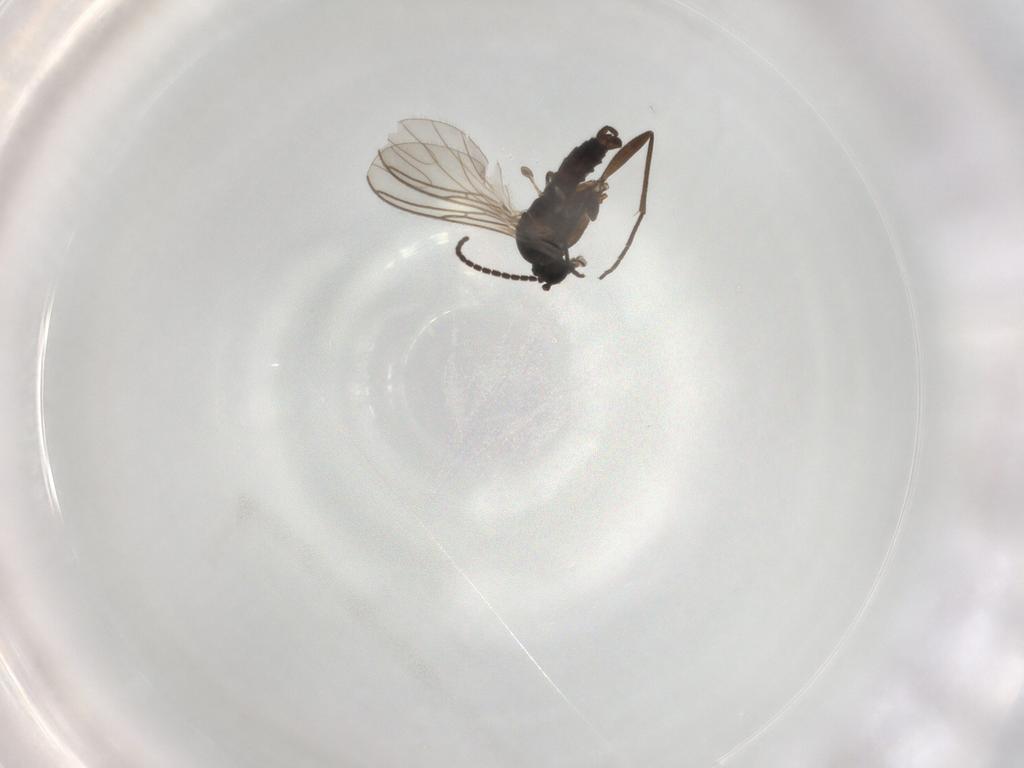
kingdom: Animalia
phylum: Arthropoda
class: Insecta
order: Diptera
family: Sciaridae
